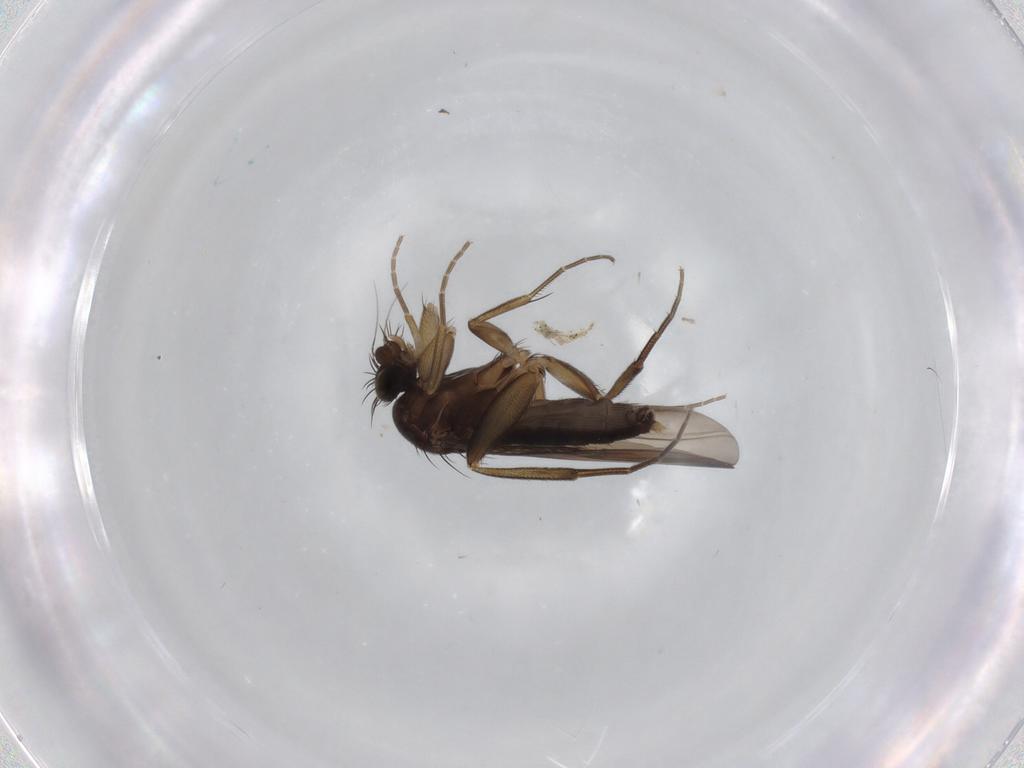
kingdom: Animalia
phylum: Arthropoda
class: Insecta
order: Diptera
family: Phoridae
